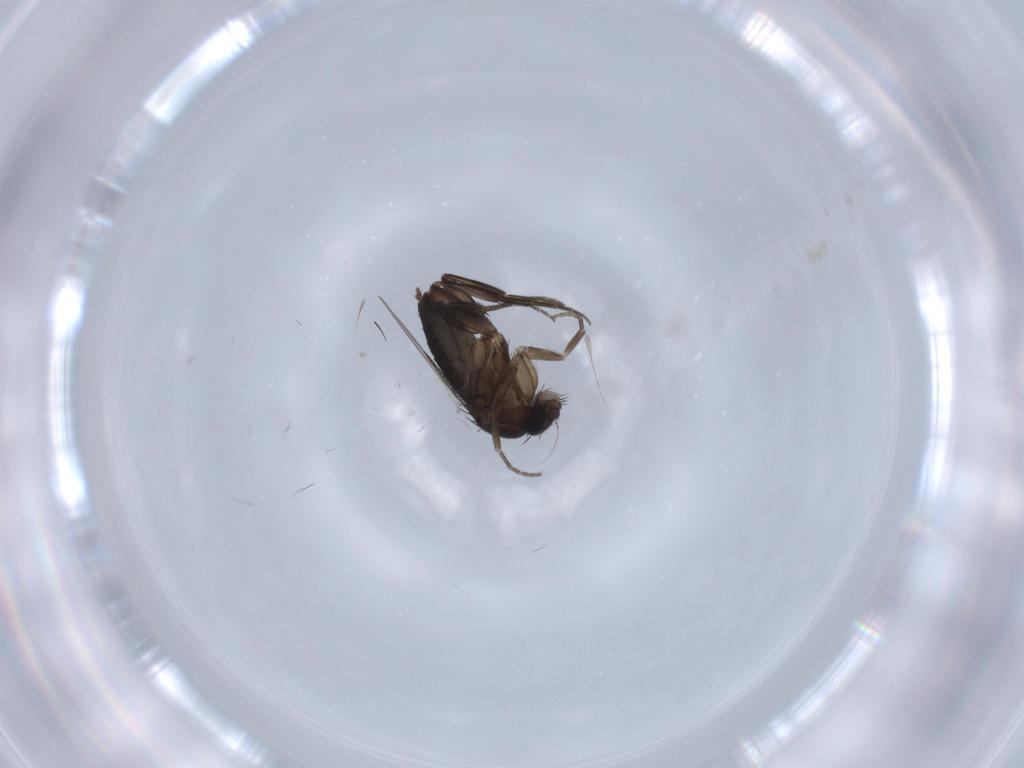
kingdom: Animalia
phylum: Arthropoda
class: Insecta
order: Diptera
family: Phoridae
